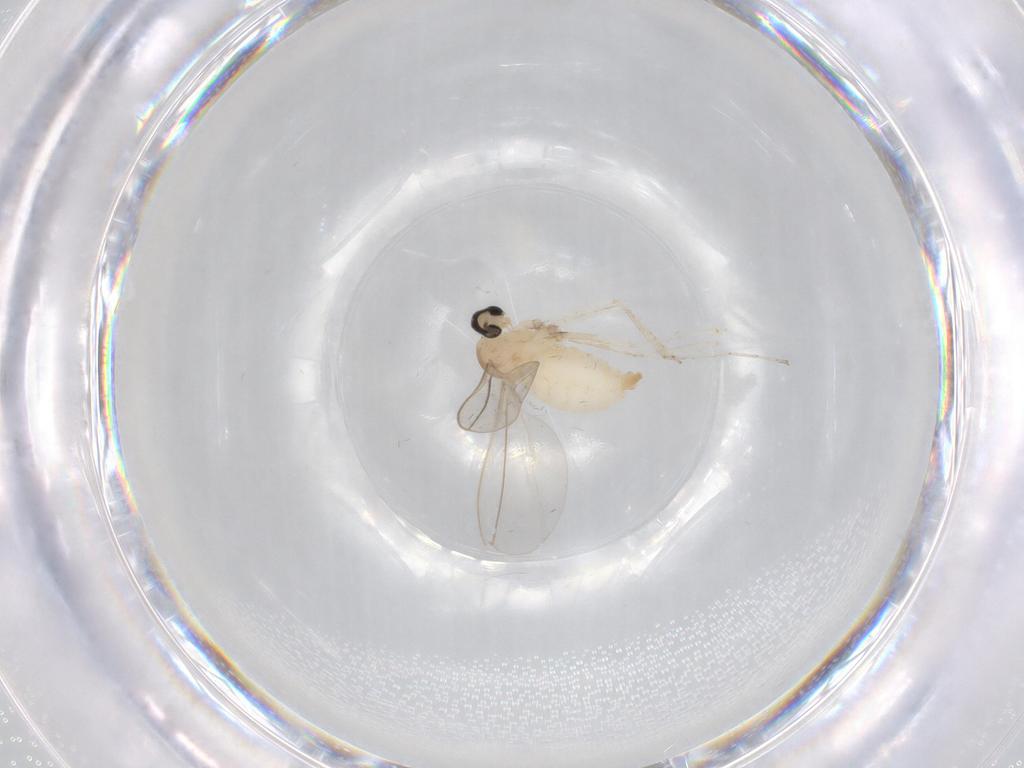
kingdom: Animalia
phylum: Arthropoda
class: Insecta
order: Diptera
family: Cecidomyiidae
